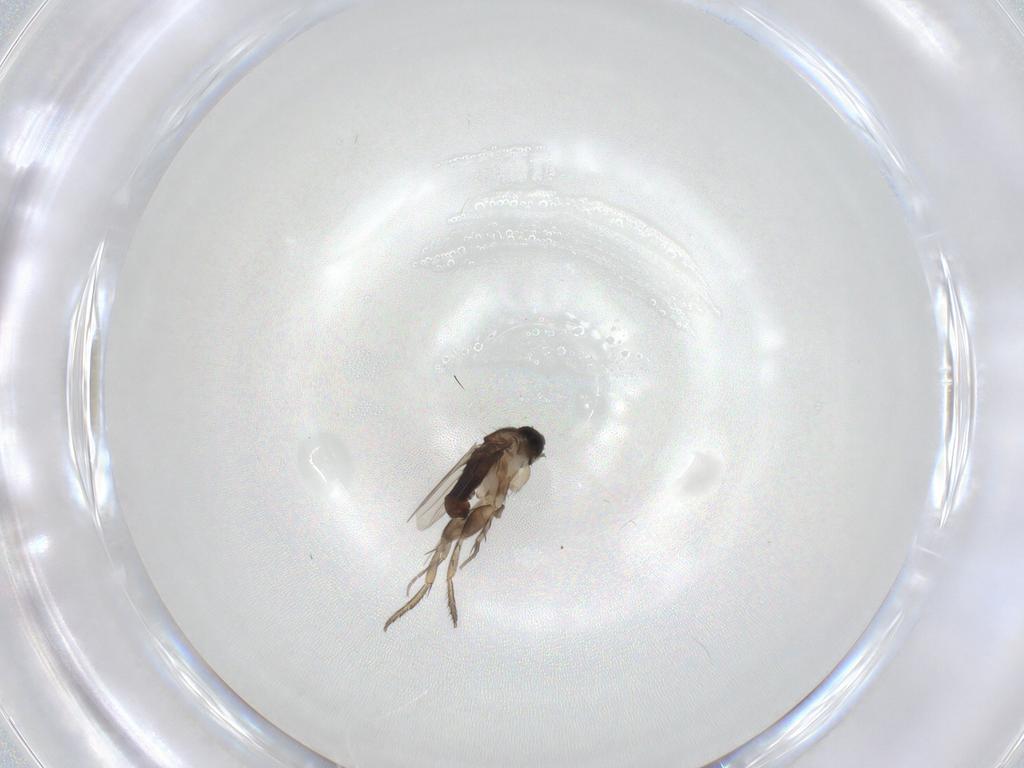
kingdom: Animalia
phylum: Arthropoda
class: Insecta
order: Diptera
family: Phoridae
